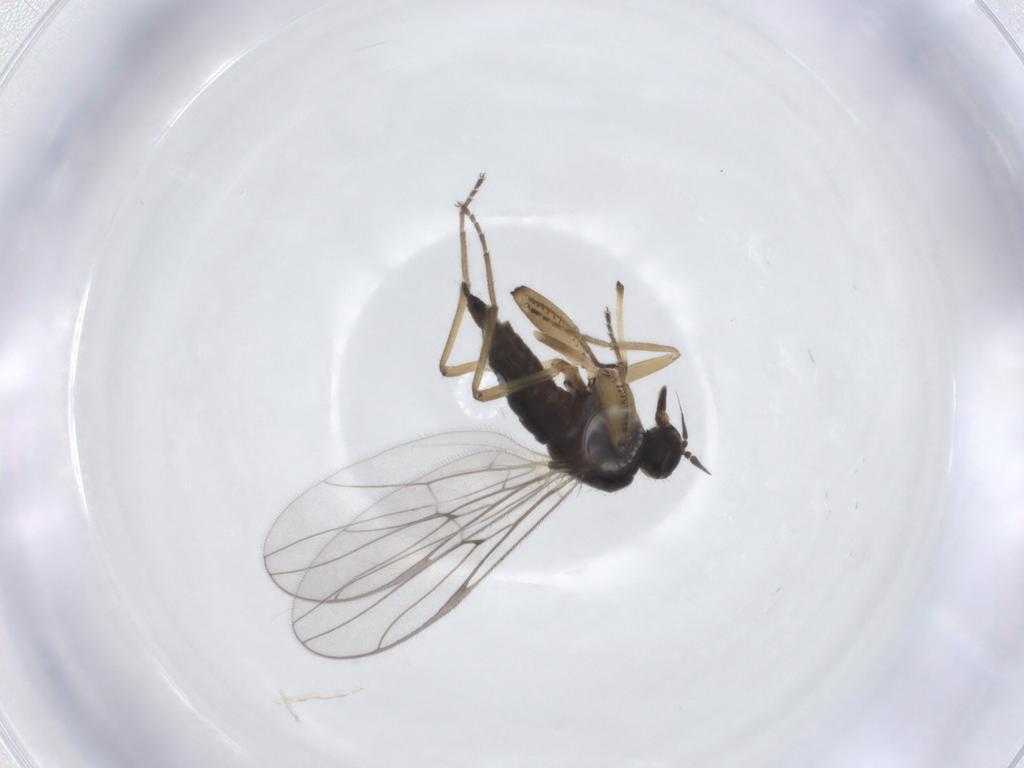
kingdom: Animalia
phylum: Arthropoda
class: Insecta
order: Diptera
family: Hybotidae
